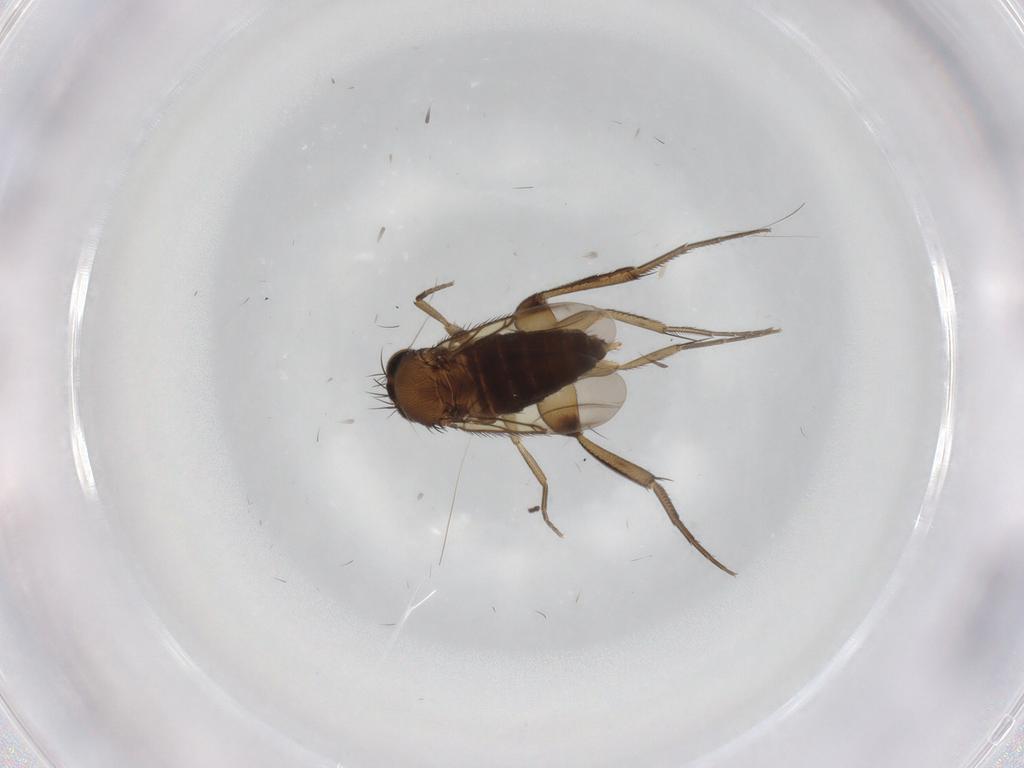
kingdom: Animalia
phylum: Arthropoda
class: Insecta
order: Diptera
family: Phoridae
